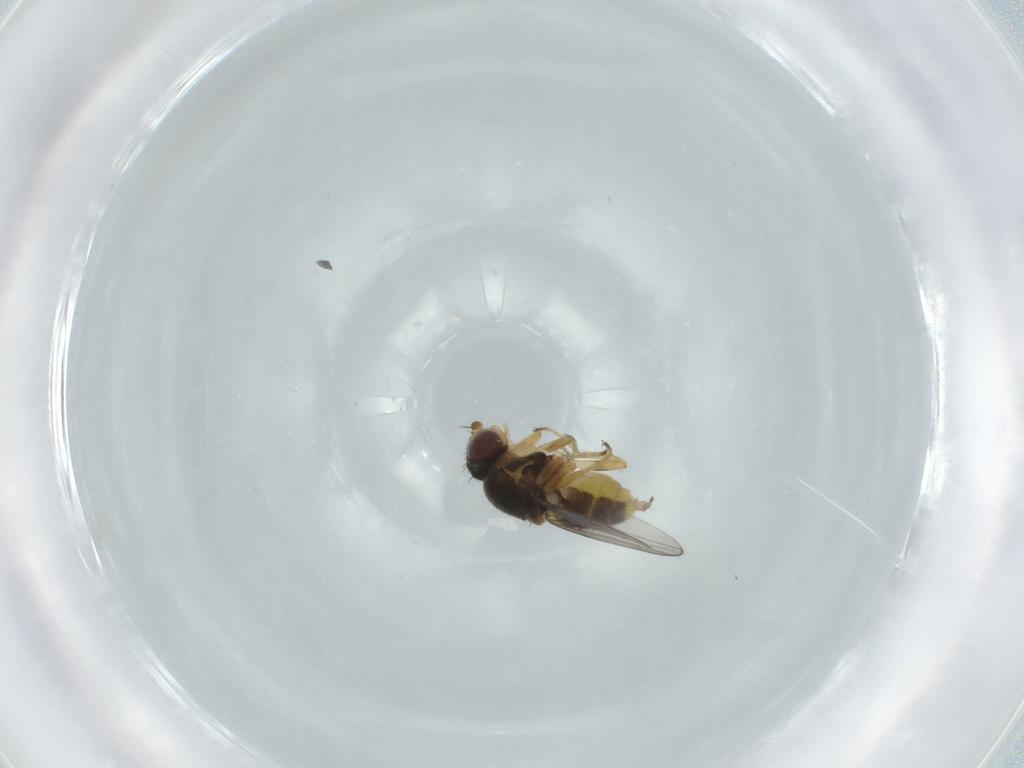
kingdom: Animalia
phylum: Arthropoda
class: Insecta
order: Diptera
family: Chloropidae
